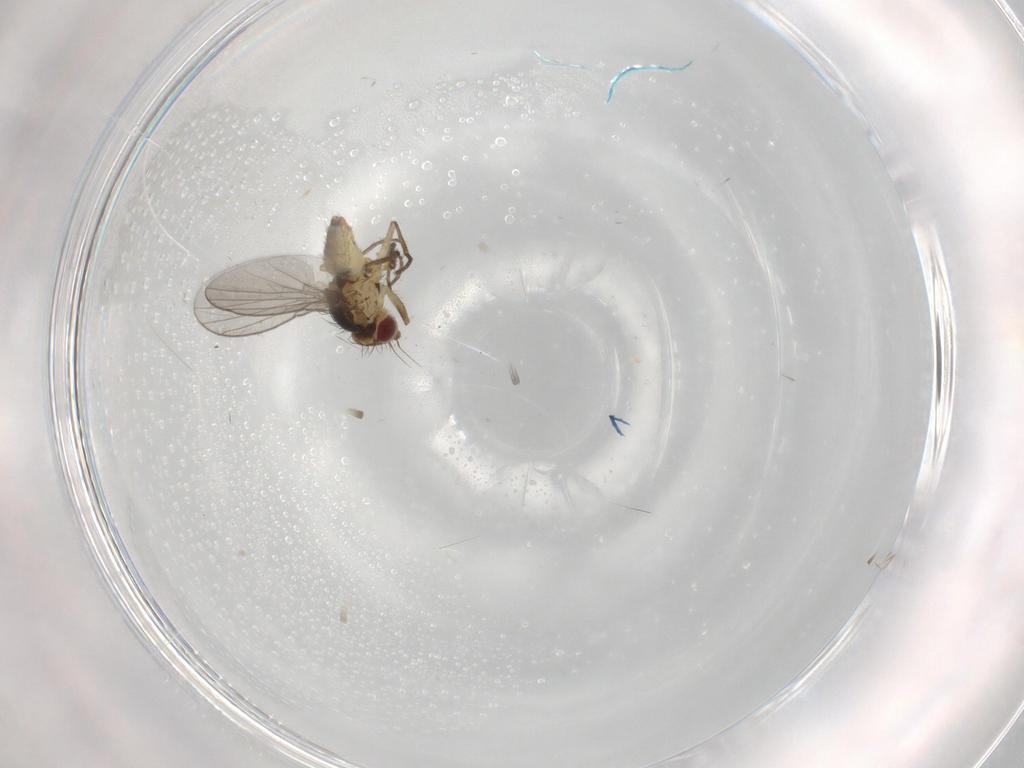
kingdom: Animalia
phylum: Arthropoda
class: Insecta
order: Diptera
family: Agromyzidae
